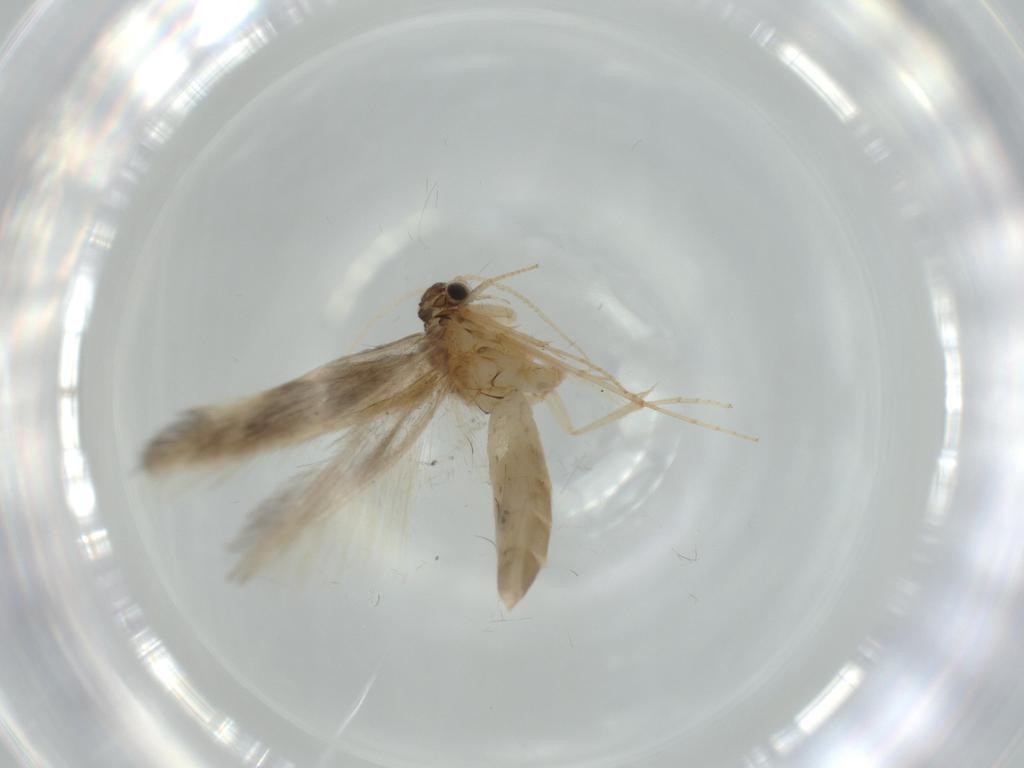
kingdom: Animalia
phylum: Arthropoda
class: Insecta
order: Trichoptera
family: Hydroptilidae
